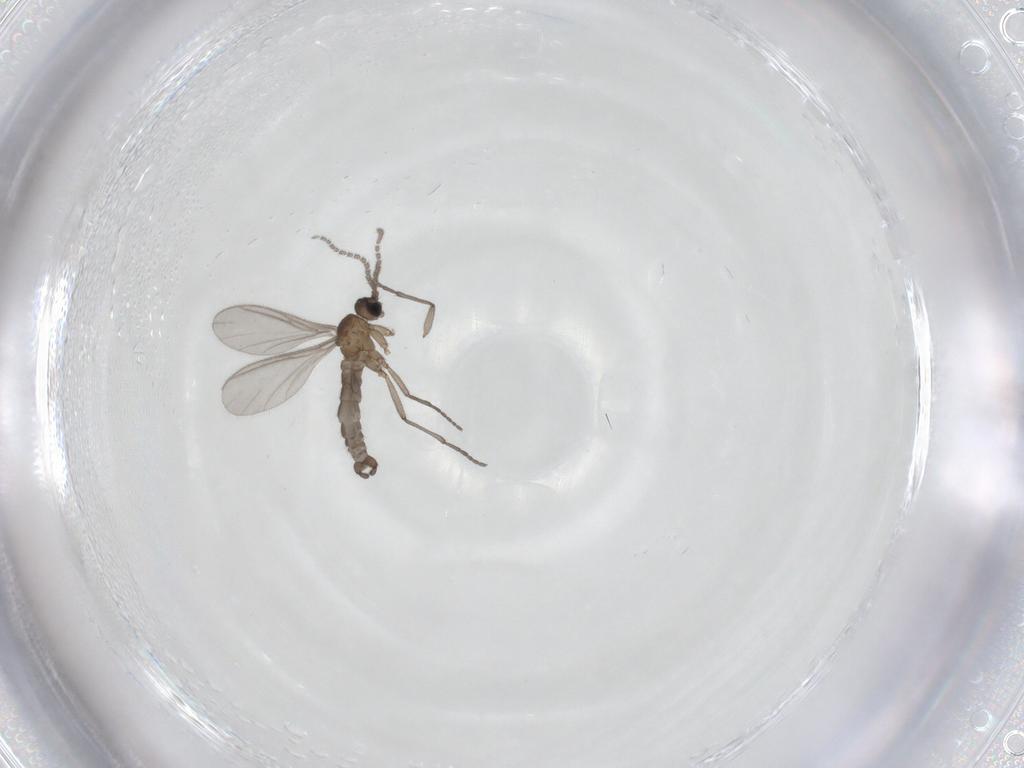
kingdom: Animalia
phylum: Arthropoda
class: Insecta
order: Diptera
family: Sciaridae
